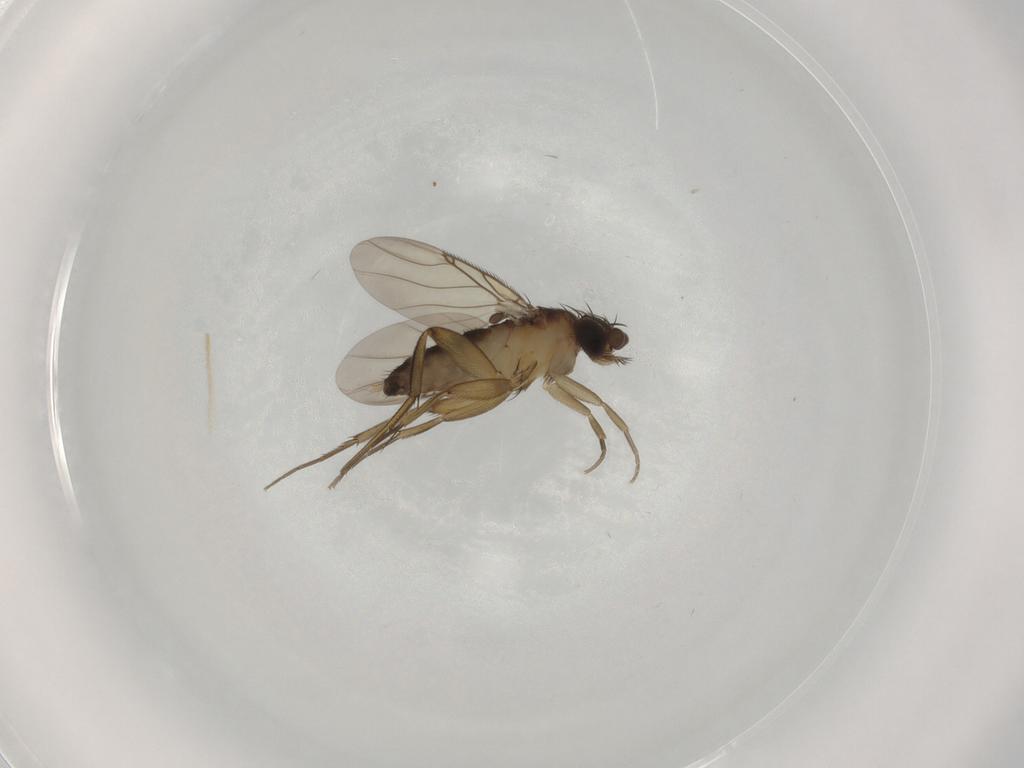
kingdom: Animalia
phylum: Arthropoda
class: Insecta
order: Diptera
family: Phoridae
